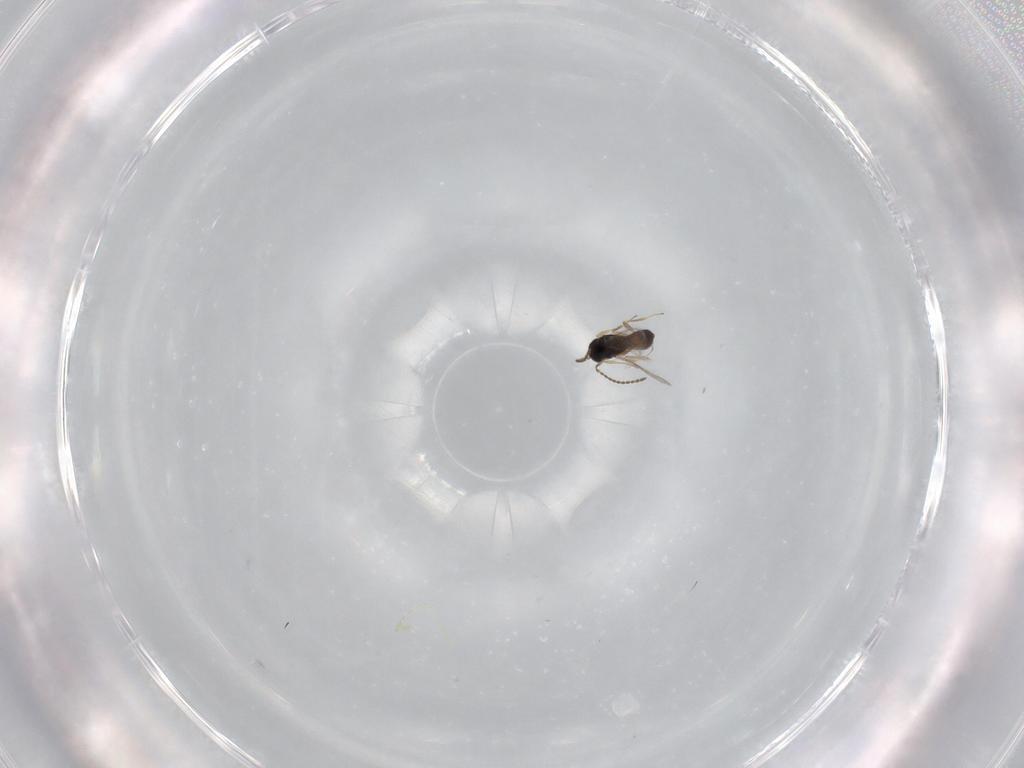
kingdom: Animalia
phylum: Arthropoda
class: Insecta
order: Hymenoptera
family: Scelionidae
